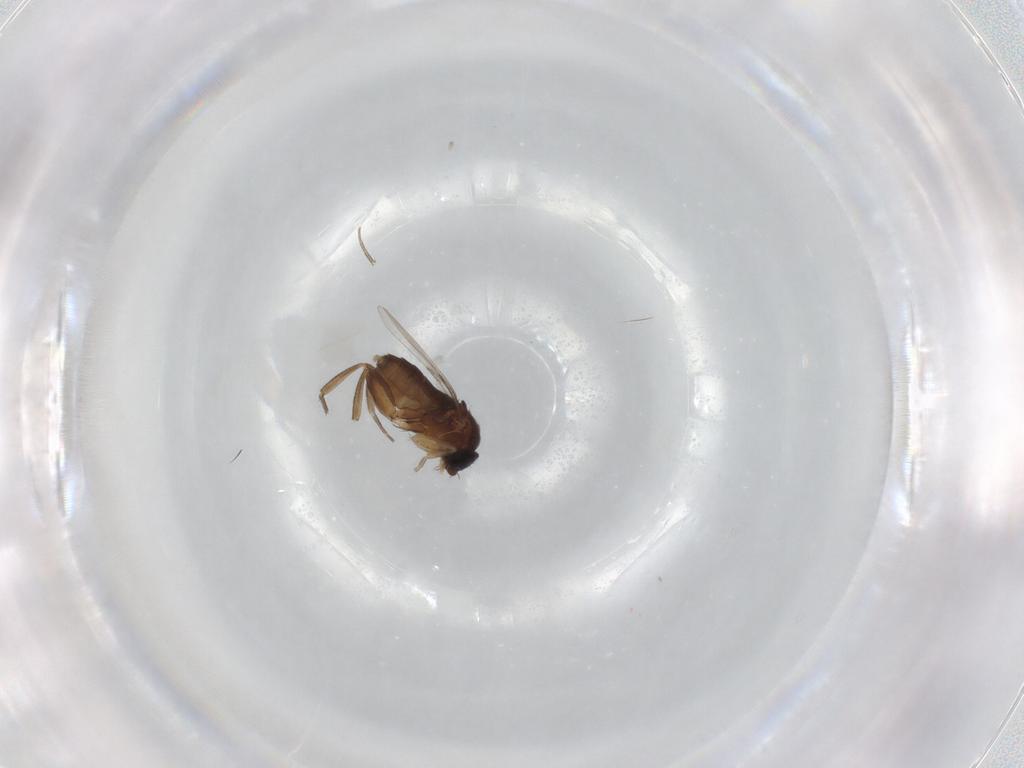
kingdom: Animalia
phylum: Arthropoda
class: Insecta
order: Diptera
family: Phoridae
